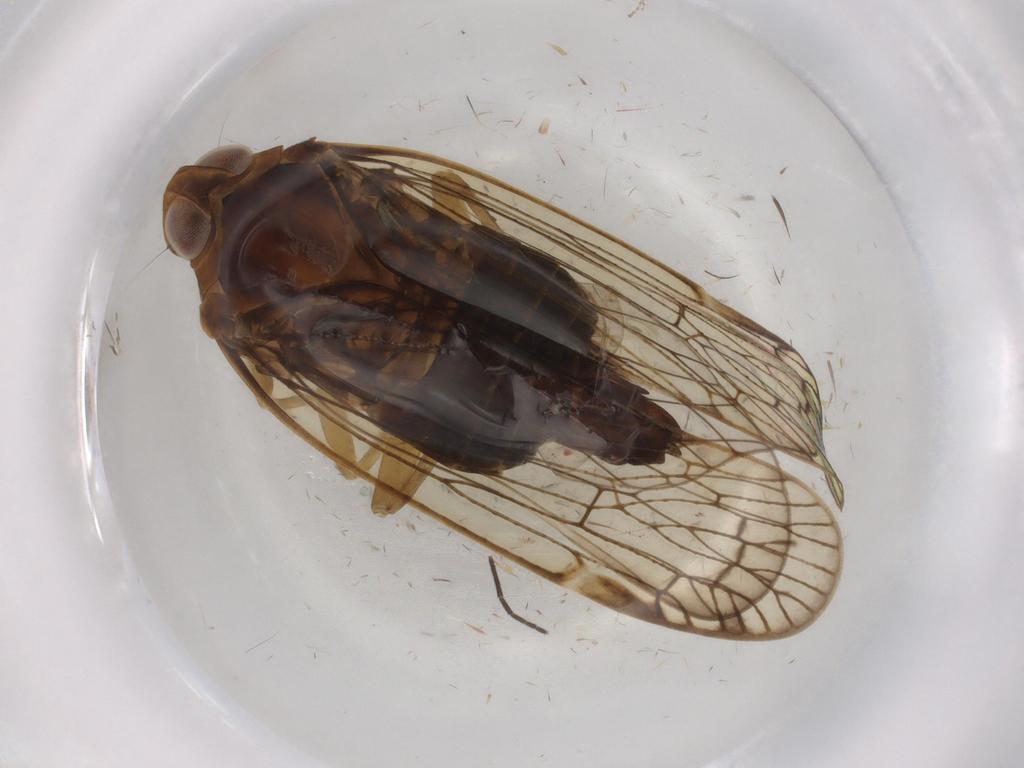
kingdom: Animalia
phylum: Arthropoda
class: Insecta
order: Hemiptera
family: Cixiidae
